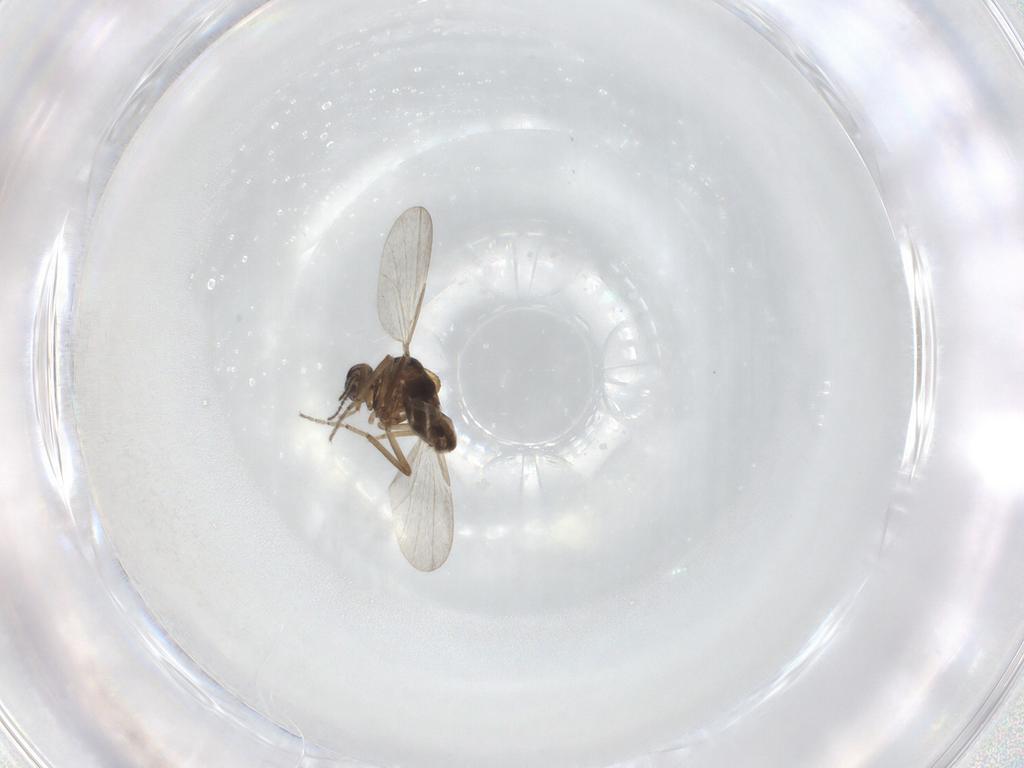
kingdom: Animalia
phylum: Arthropoda
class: Insecta
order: Diptera
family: Ceratopogonidae
